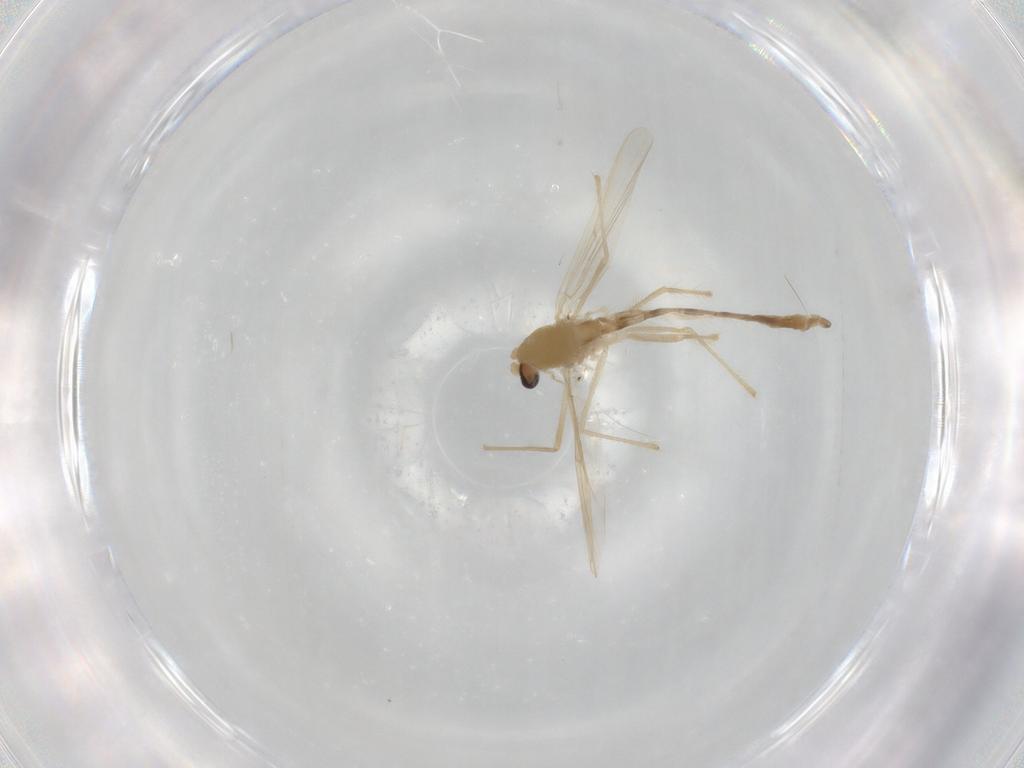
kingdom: Animalia
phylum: Arthropoda
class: Insecta
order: Diptera
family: Chironomidae
